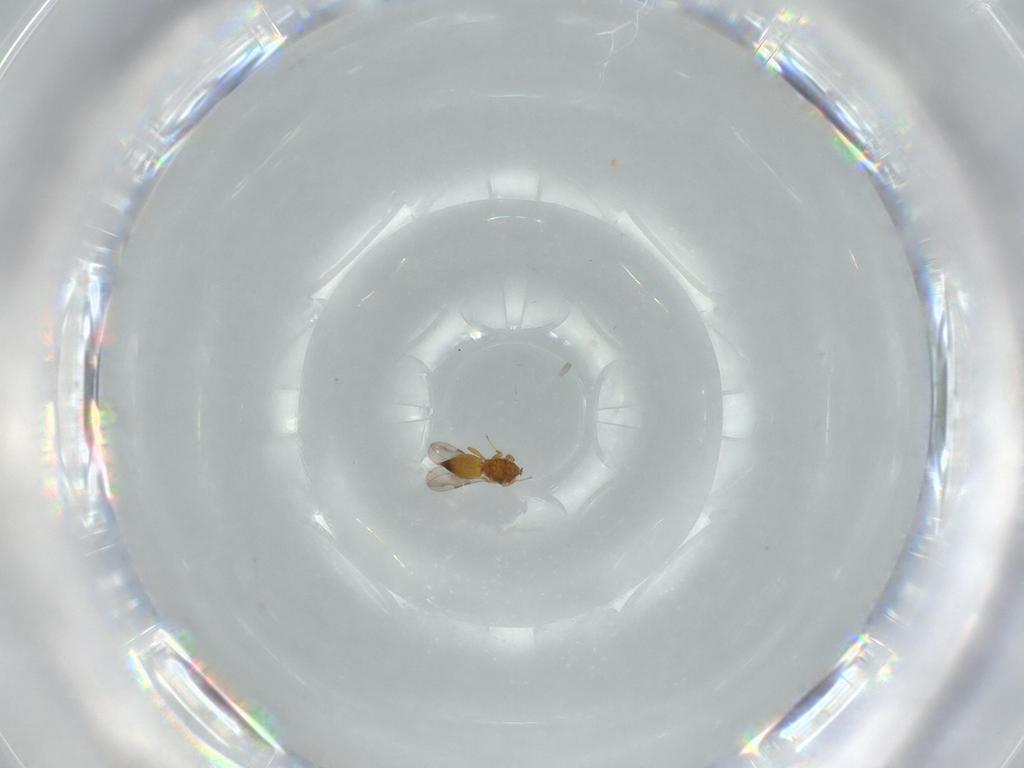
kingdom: Animalia
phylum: Arthropoda
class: Insecta
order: Hymenoptera
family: Ceraphronidae
